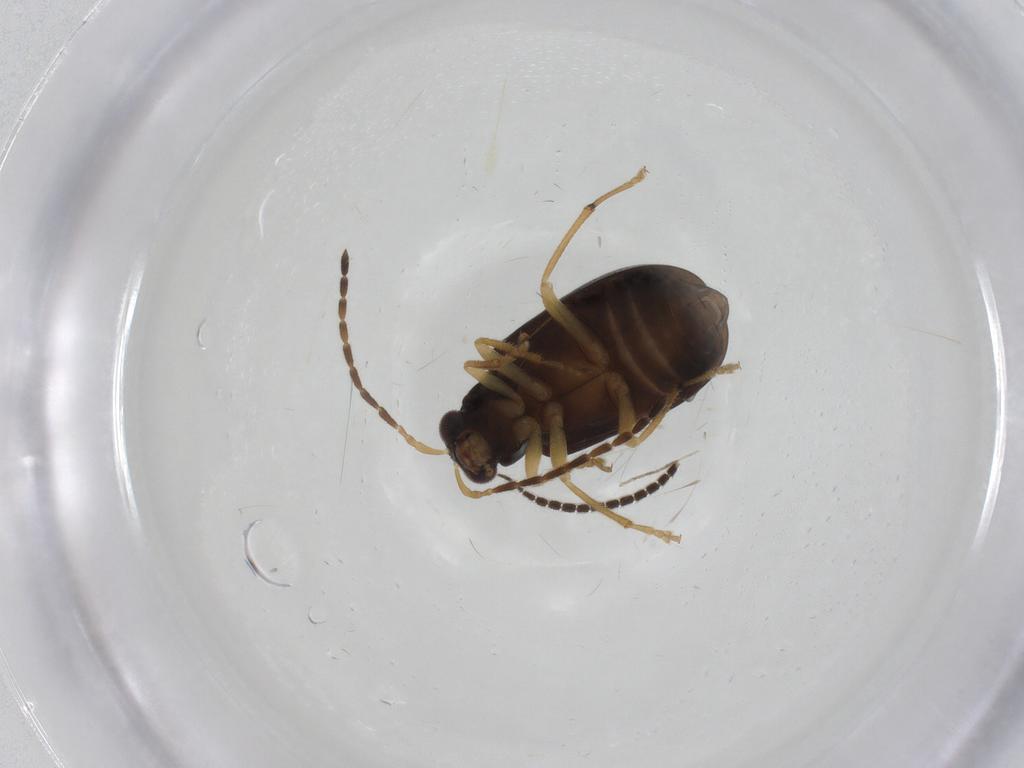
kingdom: Animalia
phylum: Arthropoda
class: Insecta
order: Coleoptera
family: Chrysomelidae
